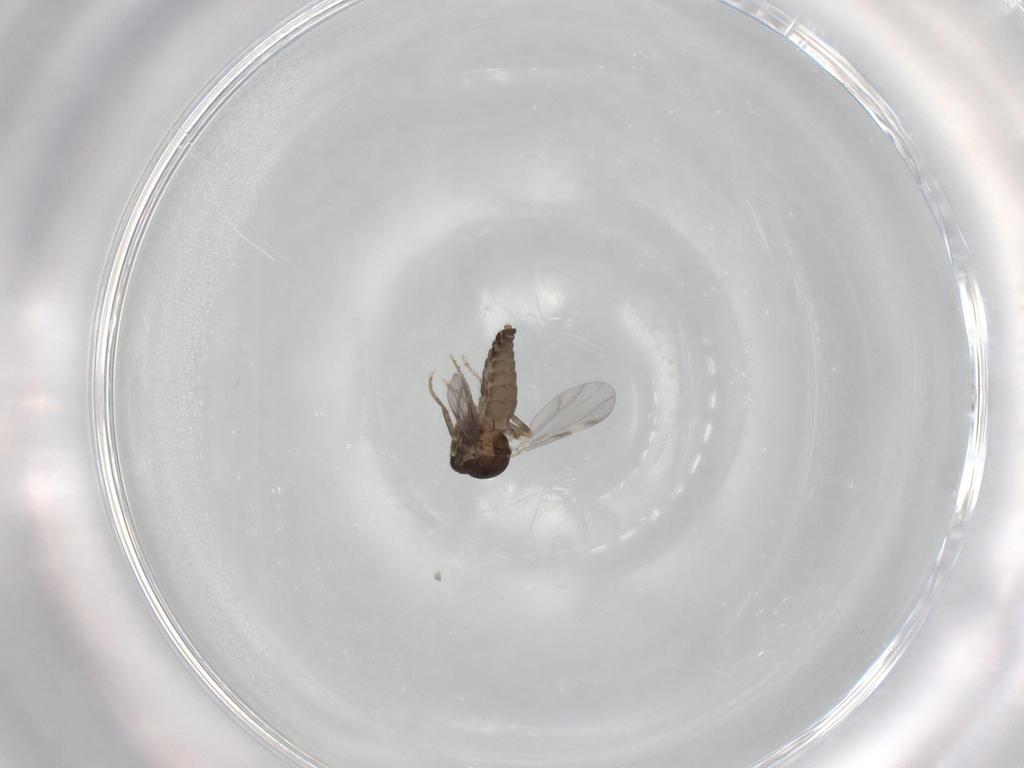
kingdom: Animalia
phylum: Arthropoda
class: Insecta
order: Diptera
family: Ceratopogonidae
